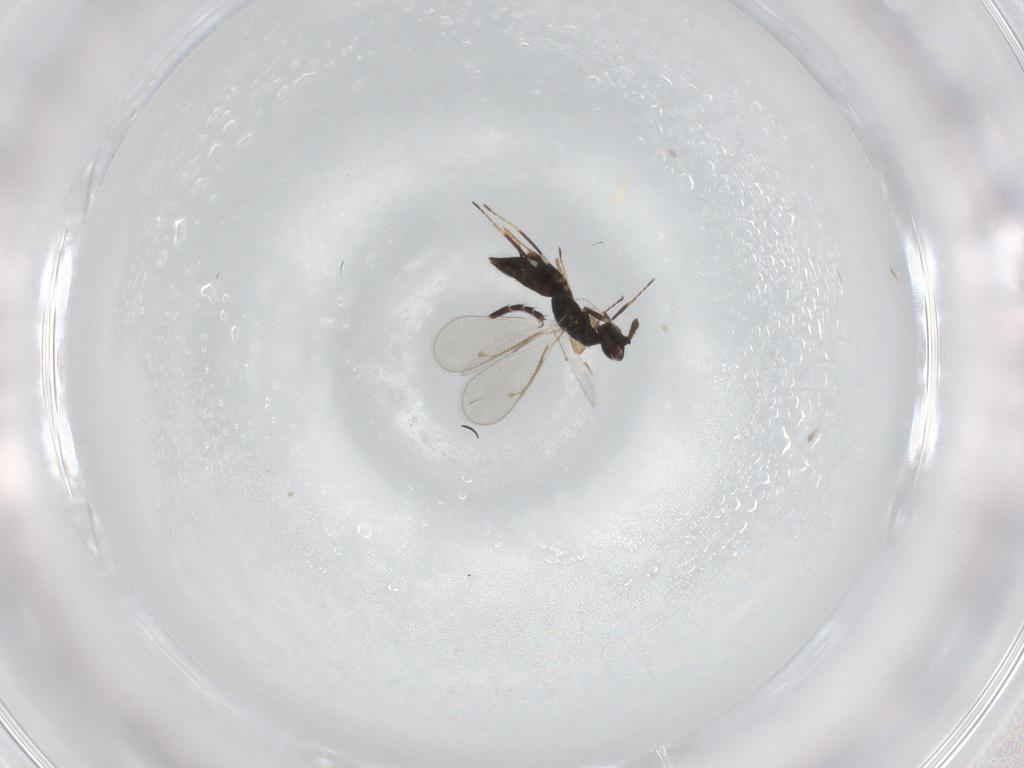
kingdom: Animalia
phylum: Arthropoda
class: Insecta
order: Hymenoptera
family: Eulophidae
